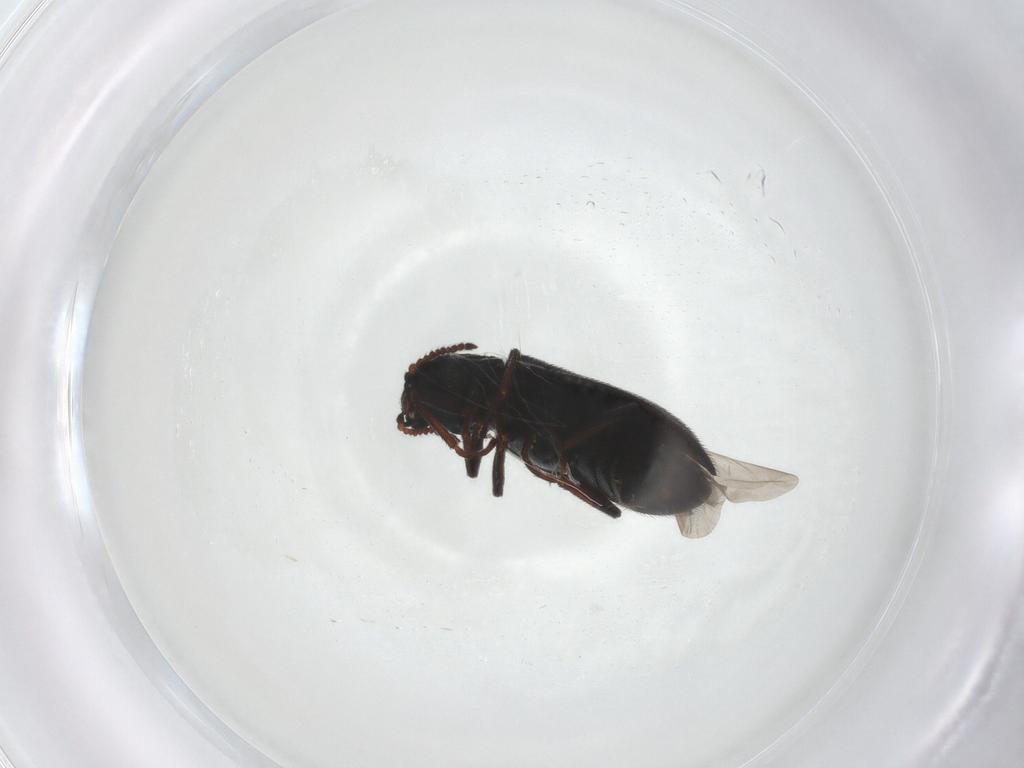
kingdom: Animalia
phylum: Arthropoda
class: Insecta
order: Coleoptera
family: Melyridae
